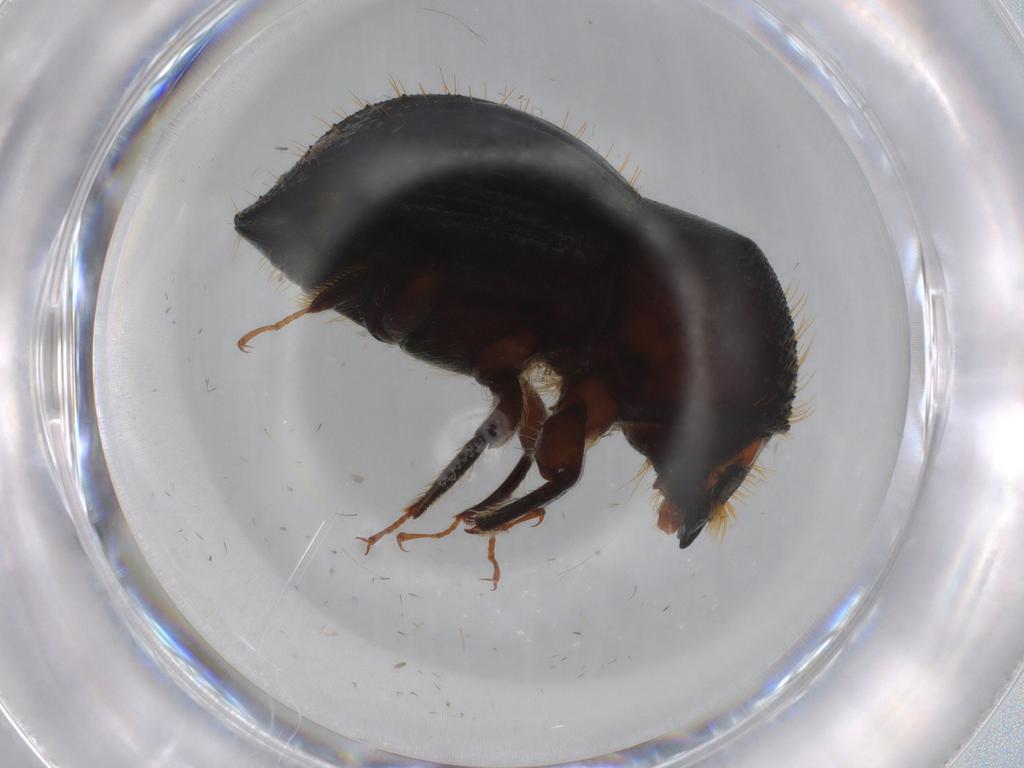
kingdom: Animalia
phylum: Arthropoda
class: Insecta
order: Coleoptera
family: Curculionidae
